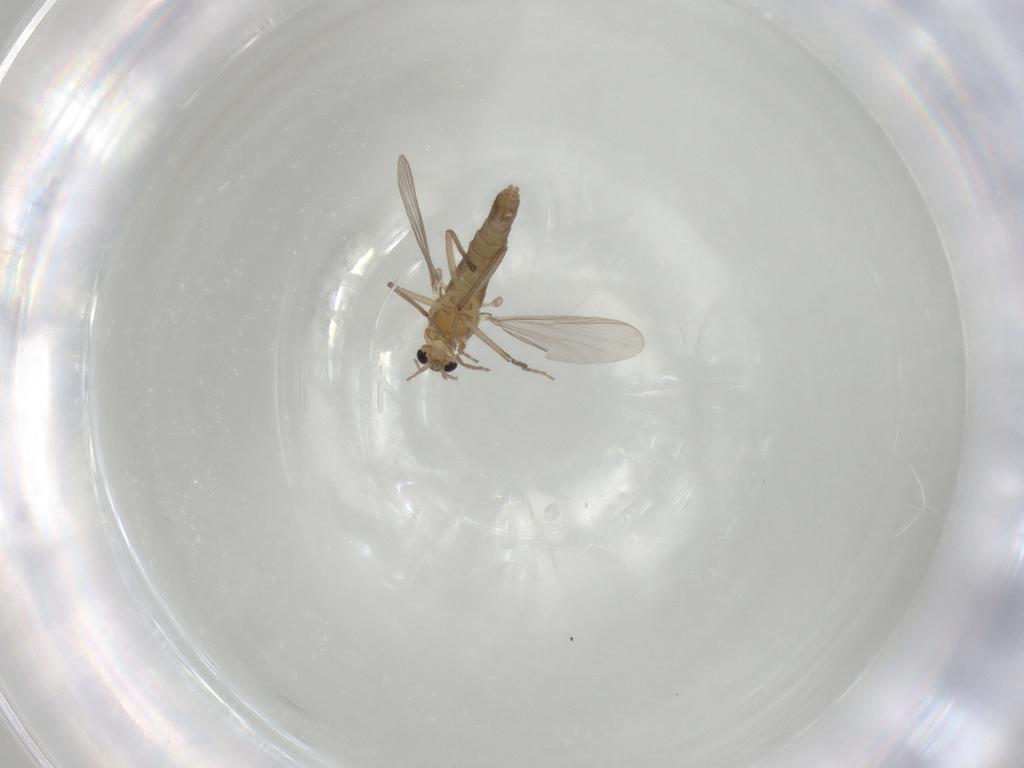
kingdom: Animalia
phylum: Arthropoda
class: Insecta
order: Diptera
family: Chironomidae
